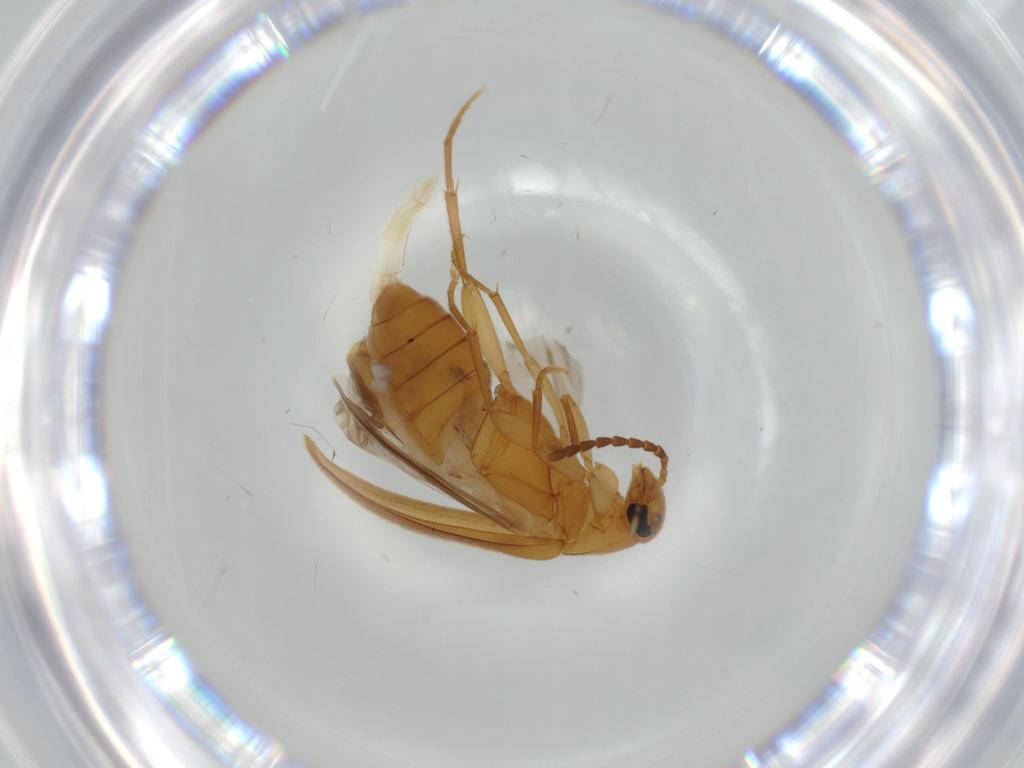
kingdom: Animalia
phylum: Arthropoda
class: Insecta
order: Coleoptera
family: Scraptiidae
